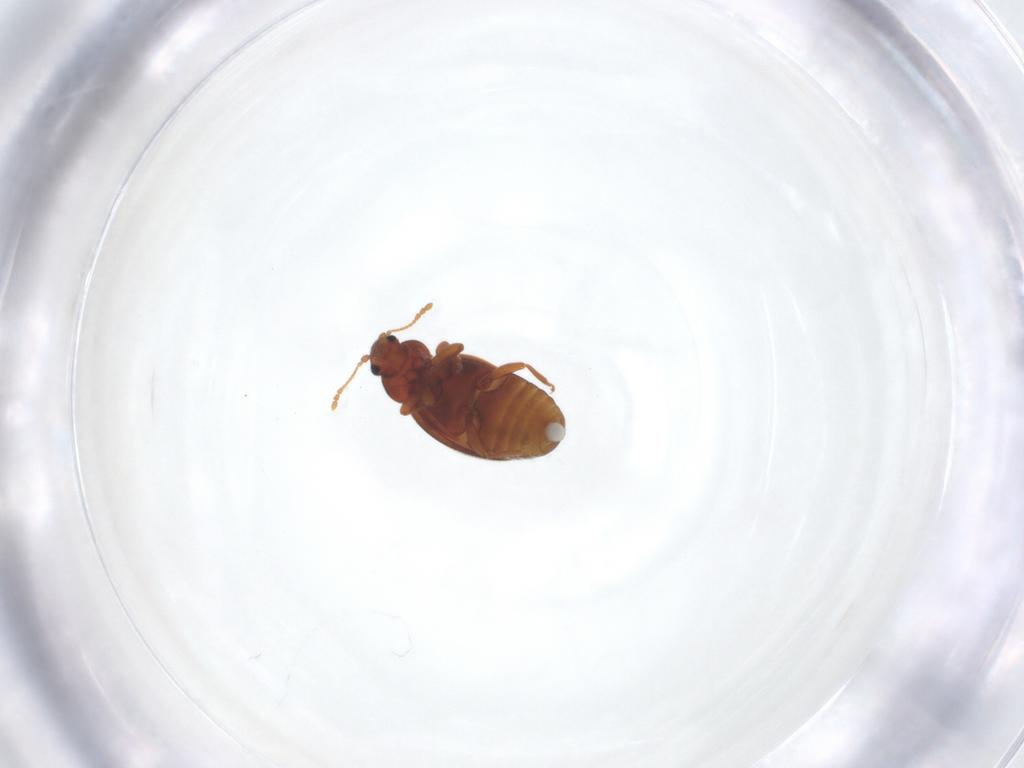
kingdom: Animalia
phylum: Arthropoda
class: Insecta
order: Coleoptera
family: Latridiidae
